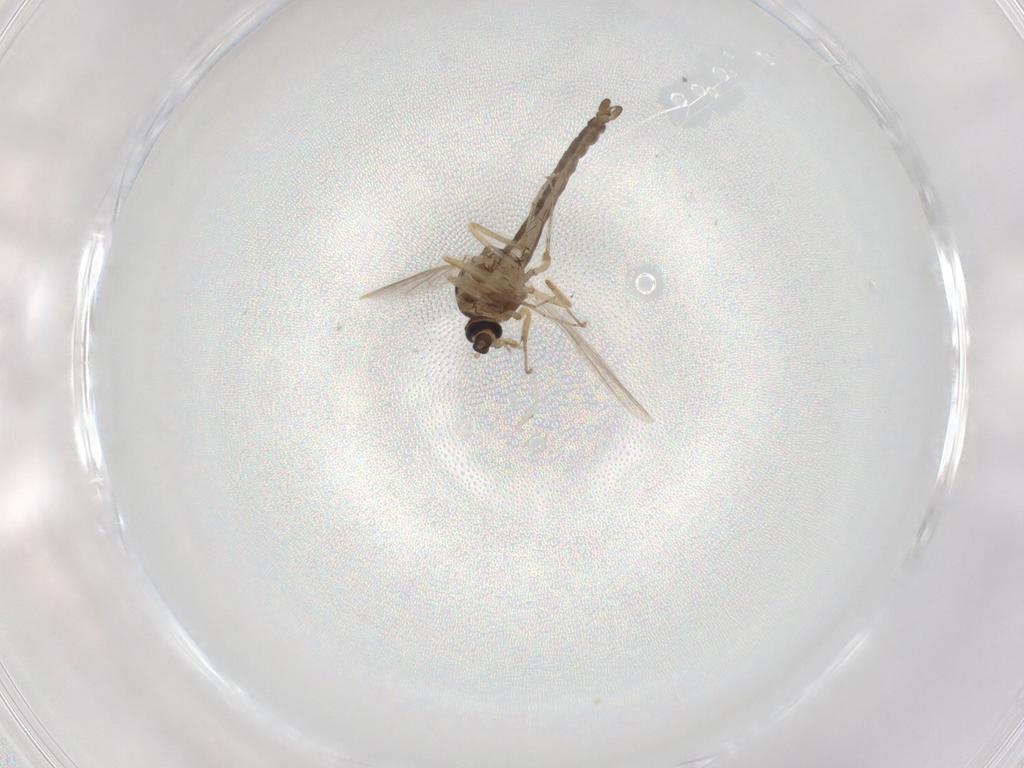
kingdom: Animalia
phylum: Arthropoda
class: Insecta
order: Diptera
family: Ceratopogonidae
